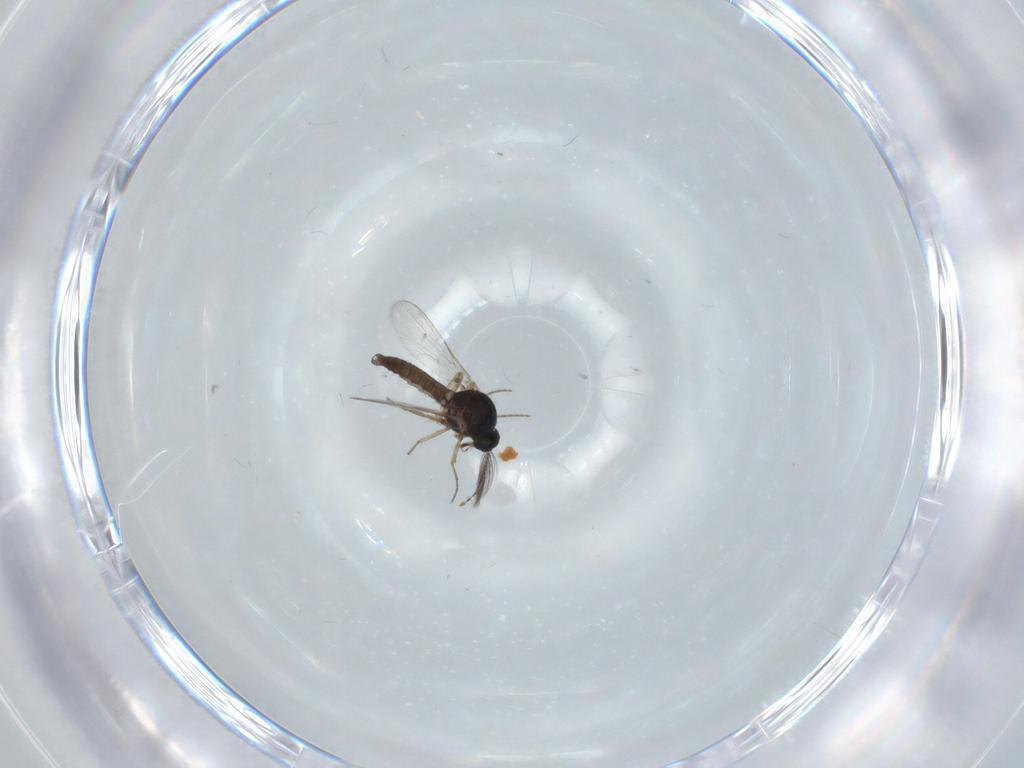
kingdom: Animalia
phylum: Arthropoda
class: Insecta
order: Diptera
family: Ceratopogonidae
